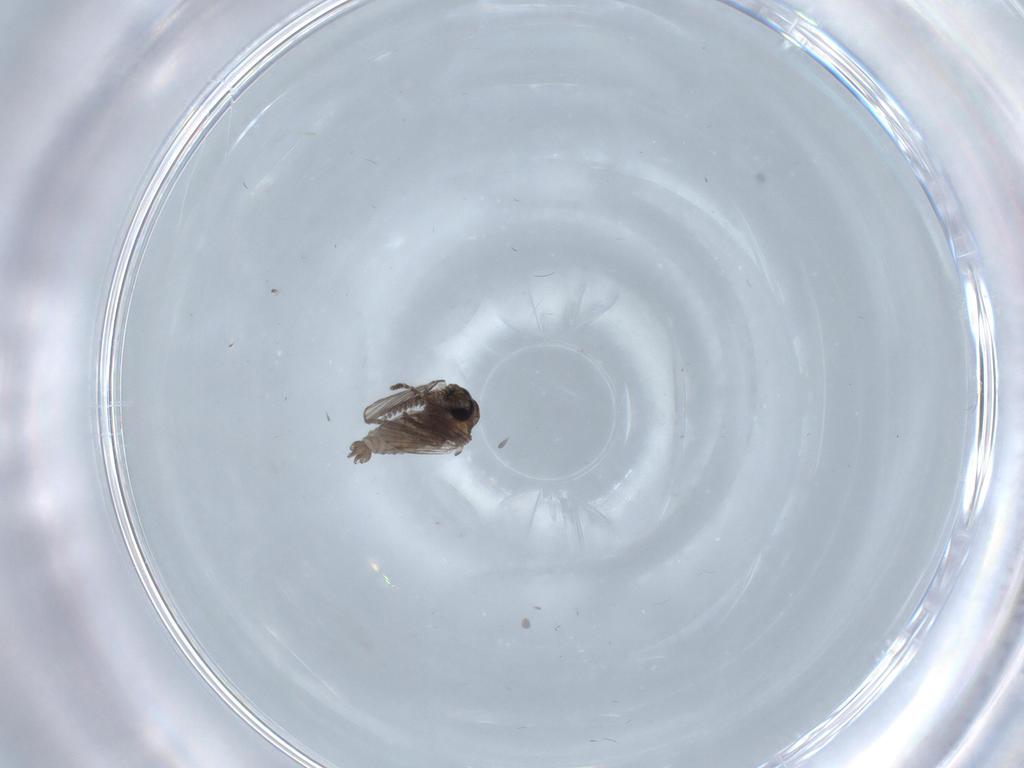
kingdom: Animalia
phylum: Arthropoda
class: Insecta
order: Diptera
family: Psychodidae
